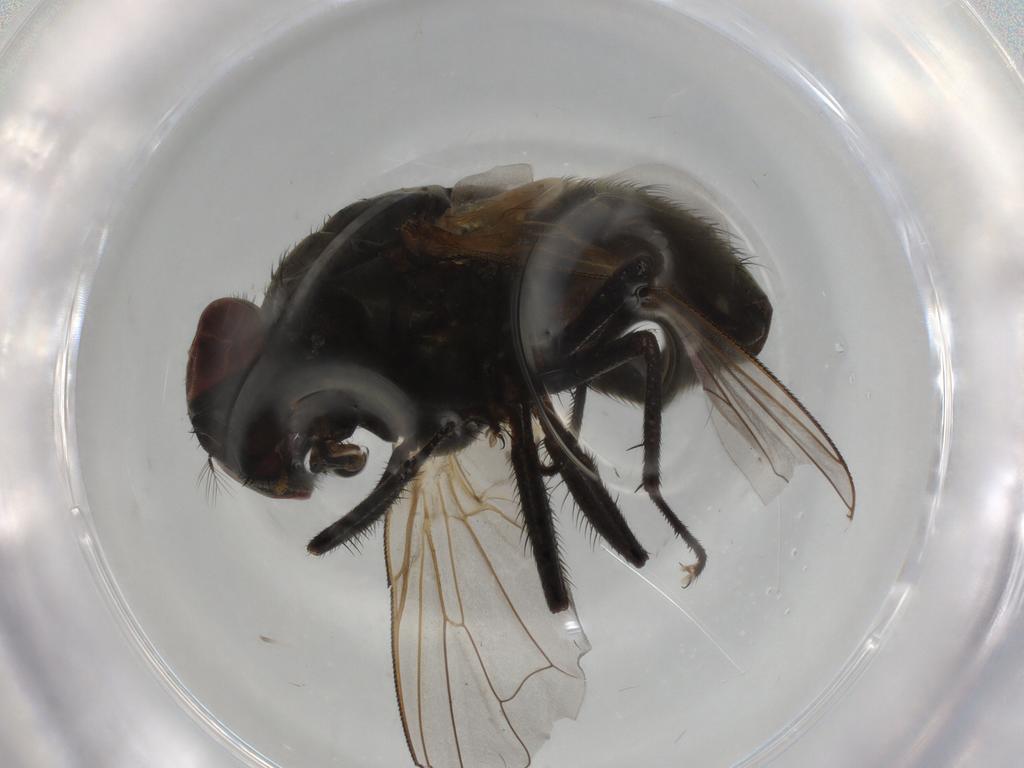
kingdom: Animalia
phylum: Arthropoda
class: Insecta
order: Diptera
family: Muscidae
